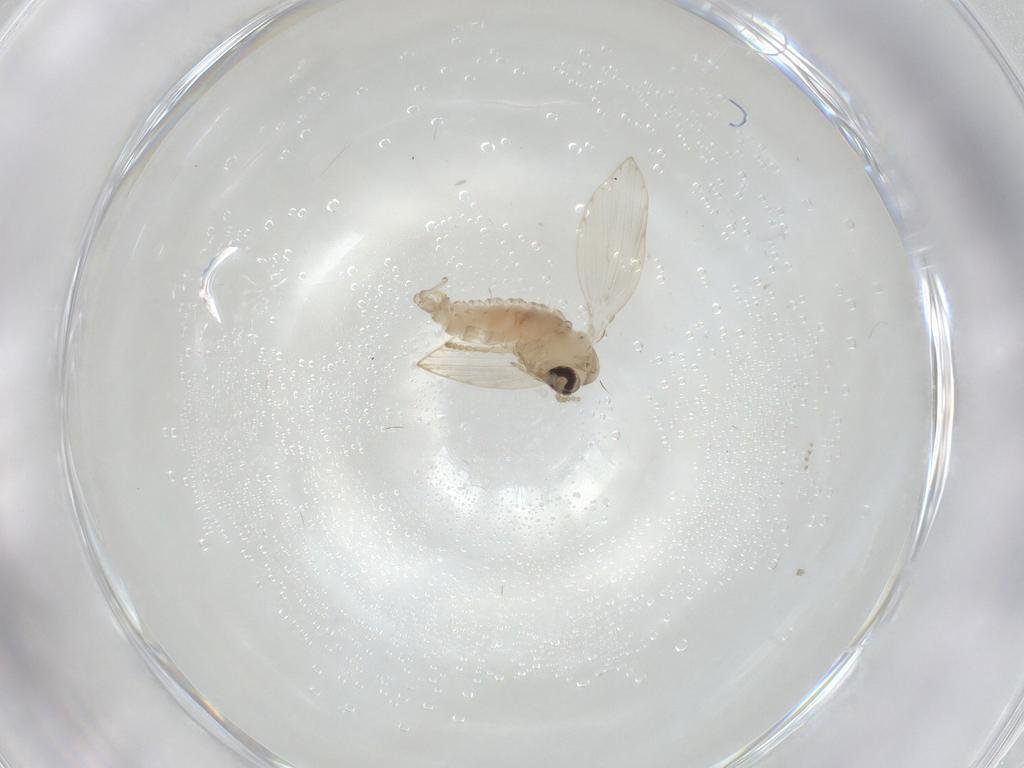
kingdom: Animalia
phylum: Arthropoda
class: Insecta
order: Diptera
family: Psychodidae
